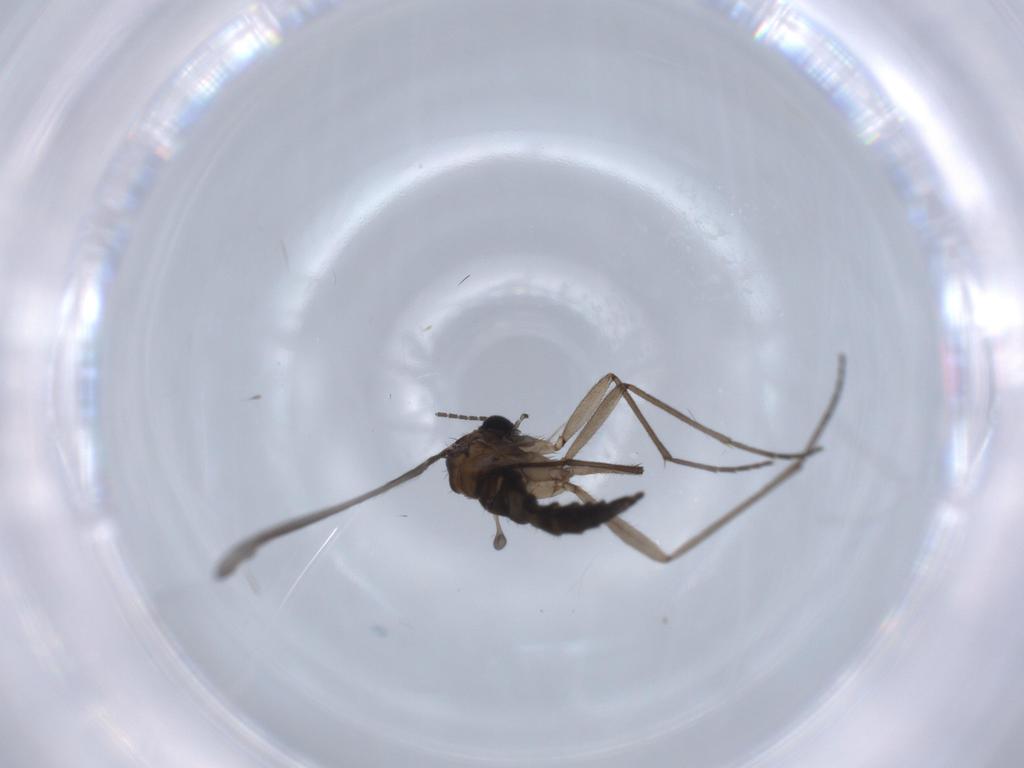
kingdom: Animalia
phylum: Arthropoda
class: Insecta
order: Diptera
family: Sciaridae
